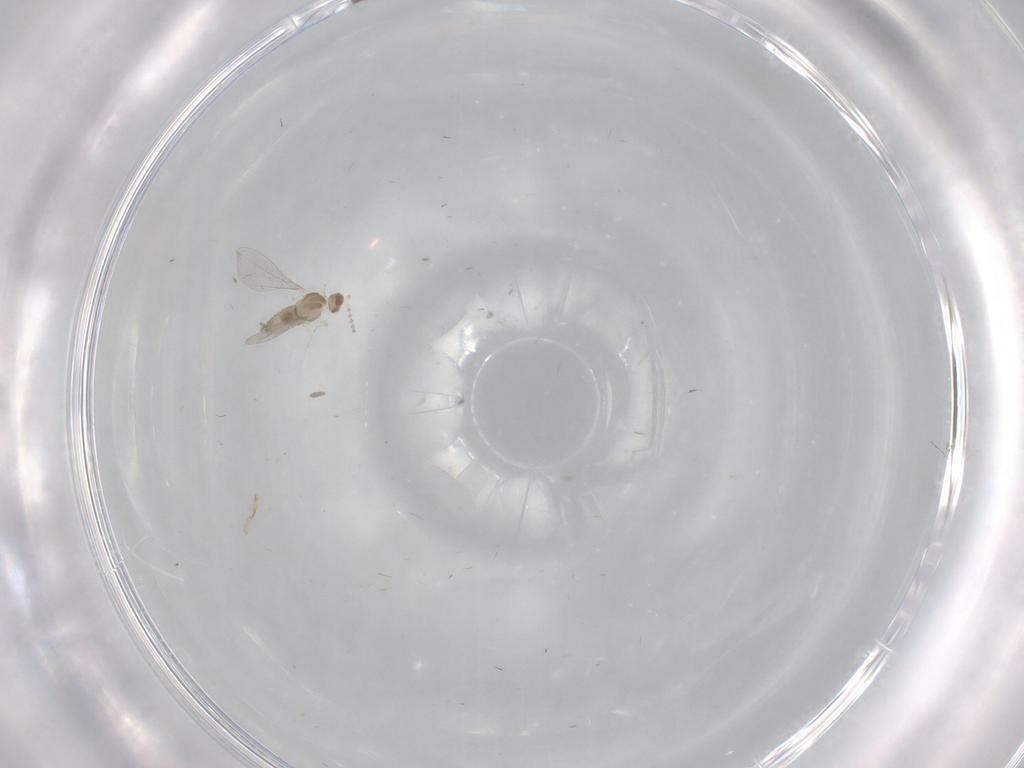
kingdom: Animalia
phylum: Arthropoda
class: Insecta
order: Diptera
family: Cecidomyiidae
